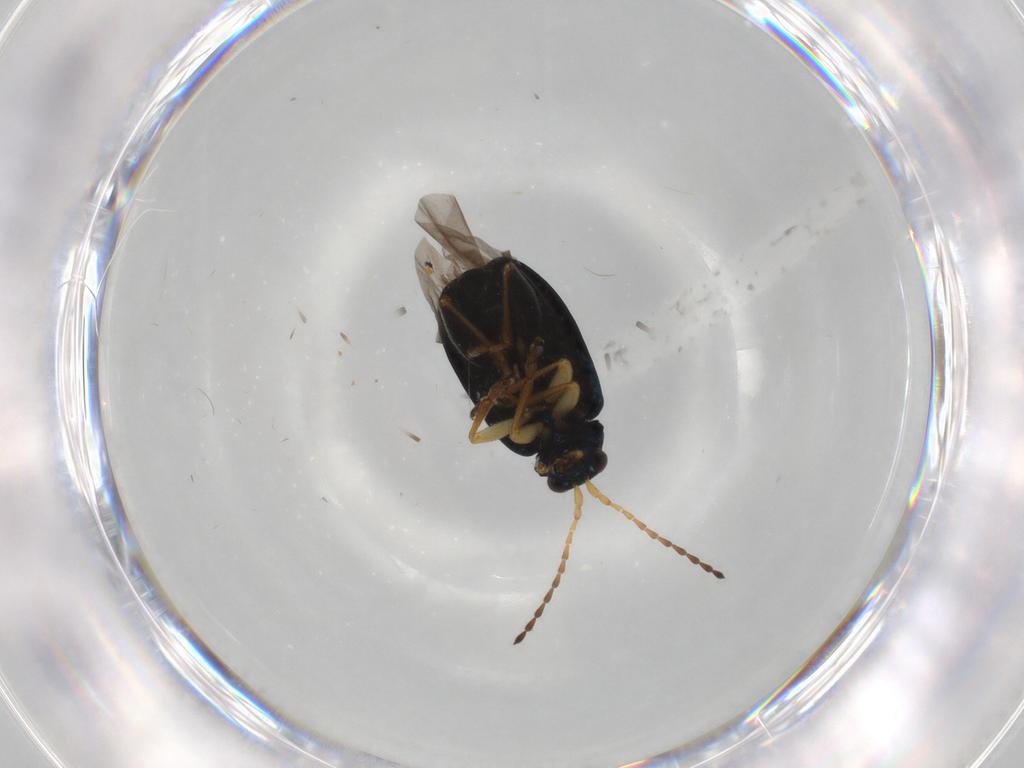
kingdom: Animalia
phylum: Arthropoda
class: Insecta
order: Coleoptera
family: Chrysomelidae
